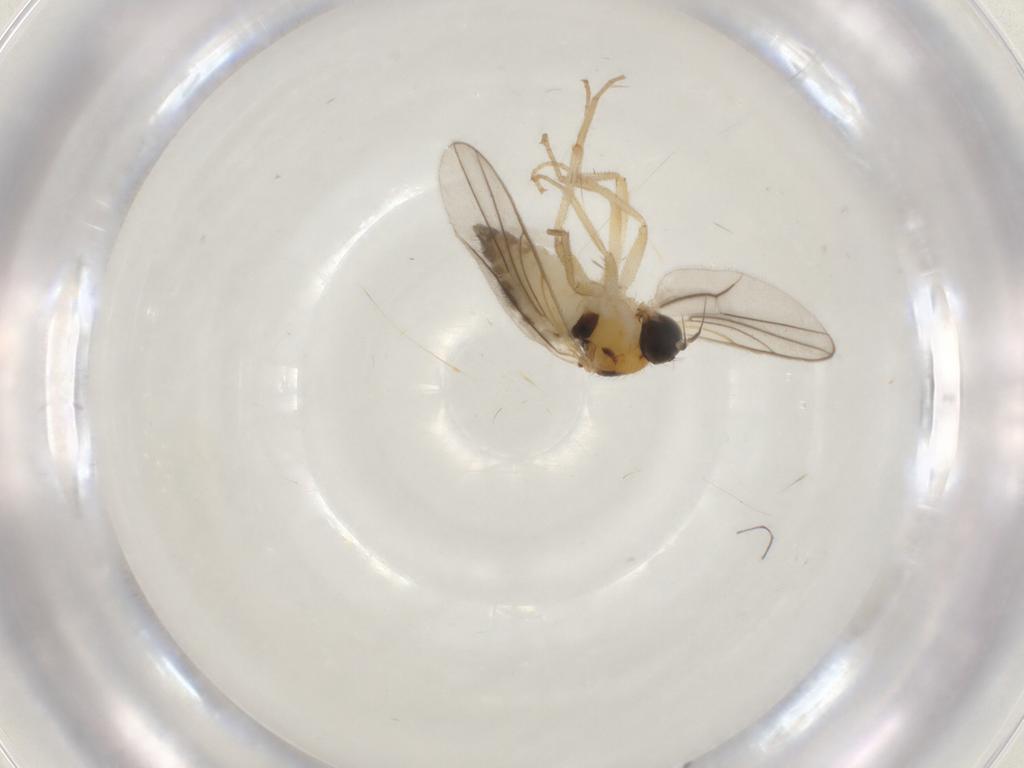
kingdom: Animalia
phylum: Arthropoda
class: Insecta
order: Diptera
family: Hybotidae
